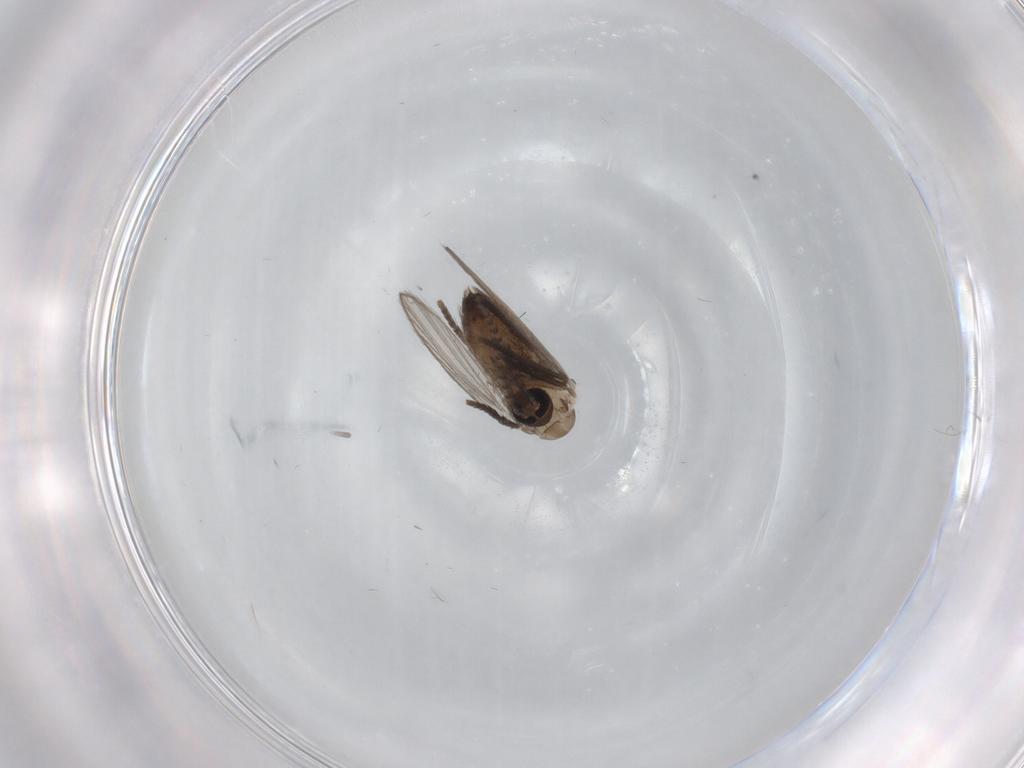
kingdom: Animalia
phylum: Arthropoda
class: Insecta
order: Diptera
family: Psychodidae
